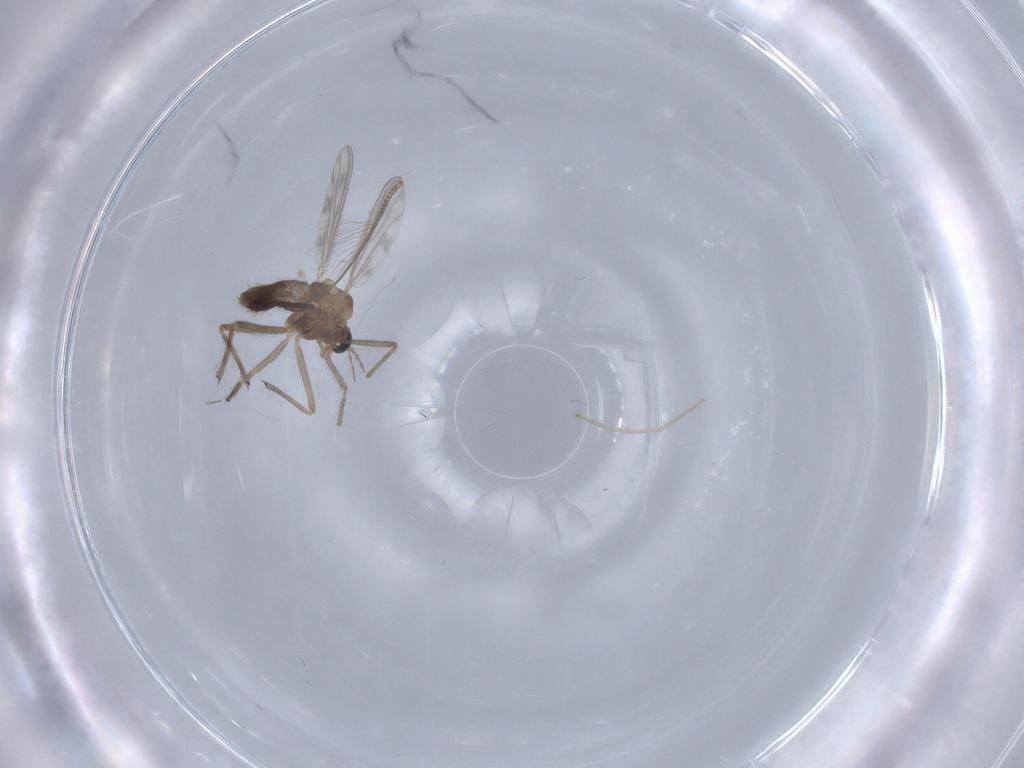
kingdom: Animalia
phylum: Arthropoda
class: Insecta
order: Diptera
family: Chironomidae
